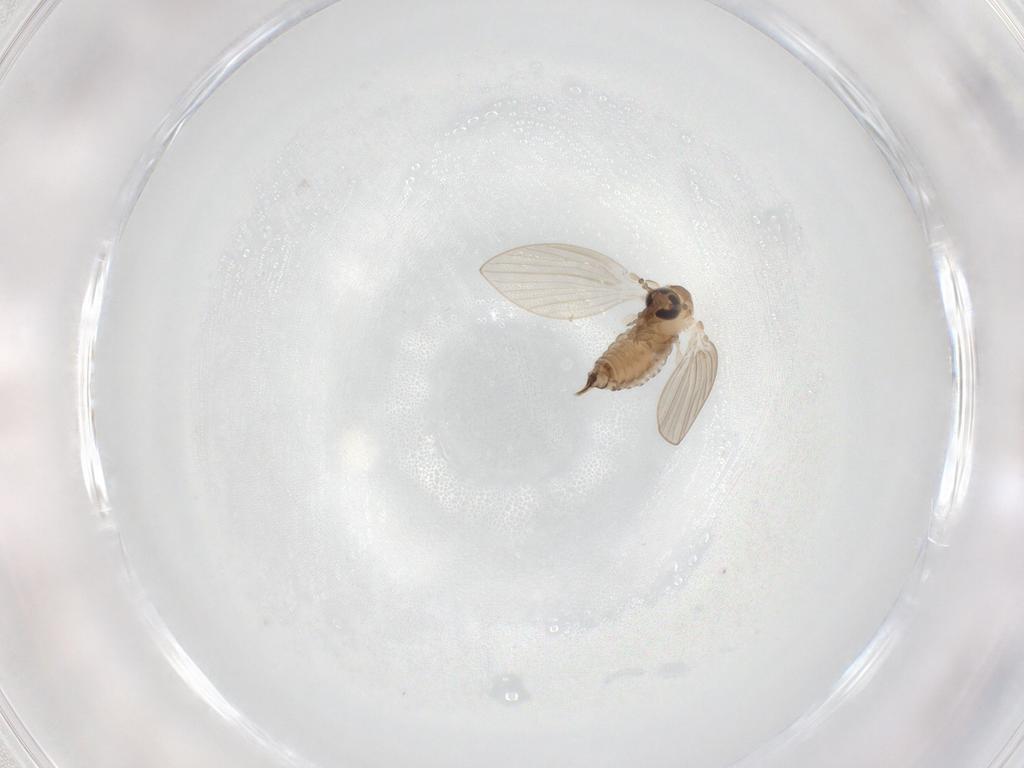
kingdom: Animalia
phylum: Arthropoda
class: Insecta
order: Diptera
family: Psychodidae
